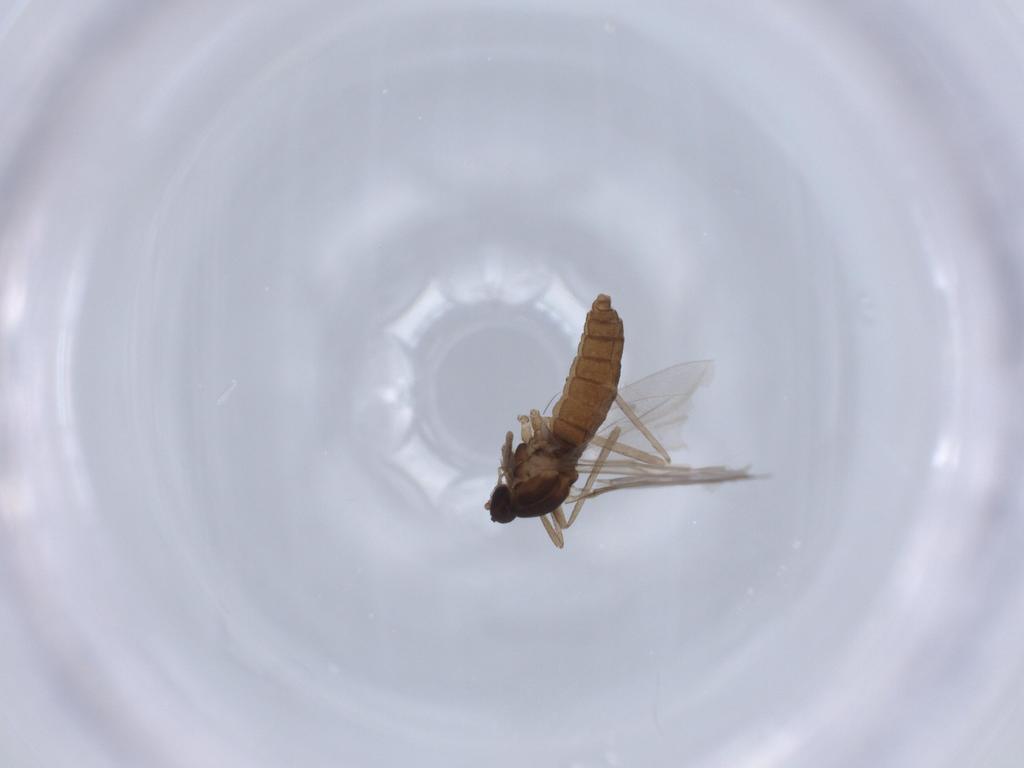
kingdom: Animalia
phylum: Arthropoda
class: Insecta
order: Diptera
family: Cecidomyiidae
